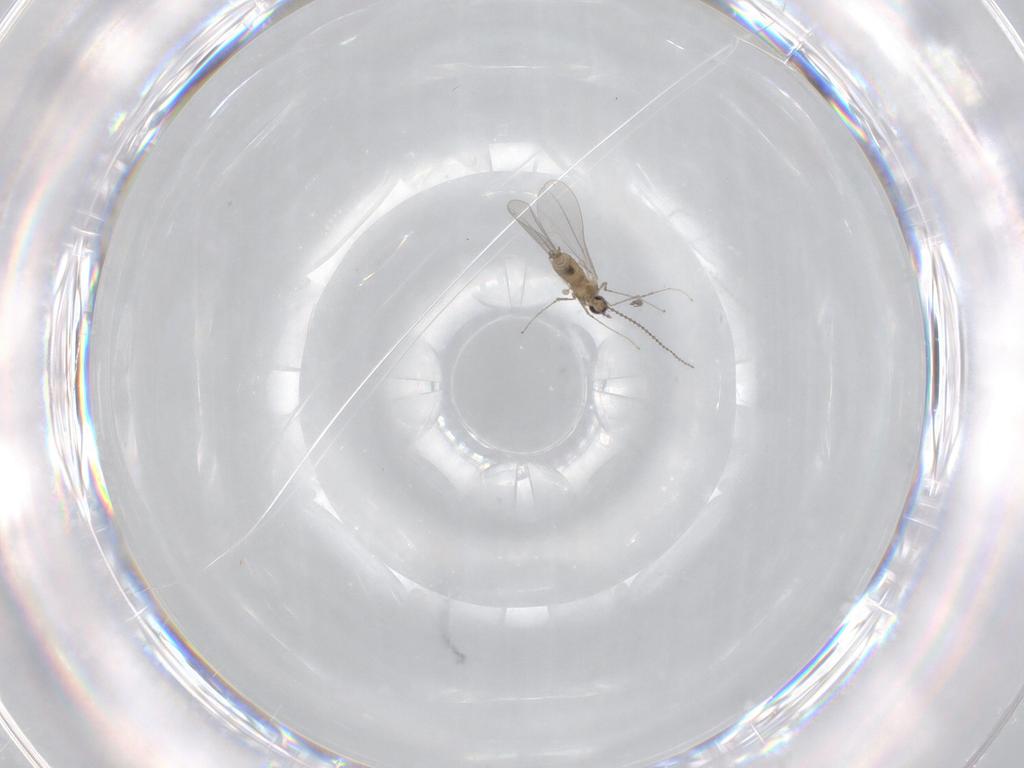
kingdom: Animalia
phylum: Arthropoda
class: Insecta
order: Diptera
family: Cecidomyiidae
